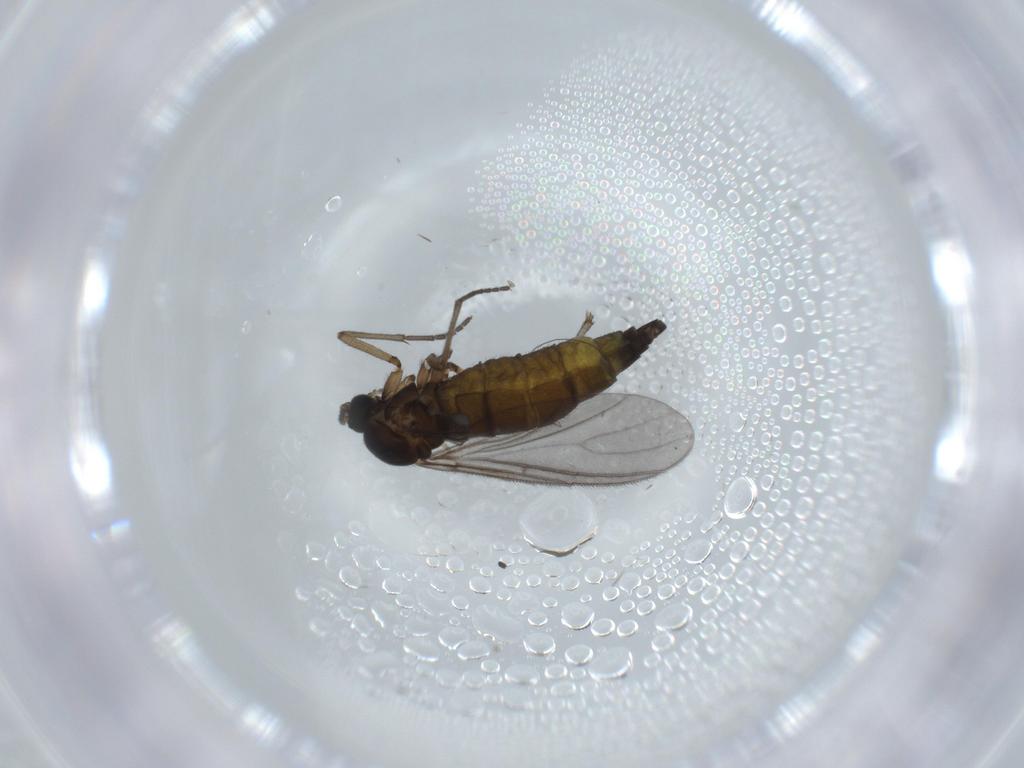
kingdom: Animalia
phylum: Arthropoda
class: Insecta
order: Diptera
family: Sciaridae
